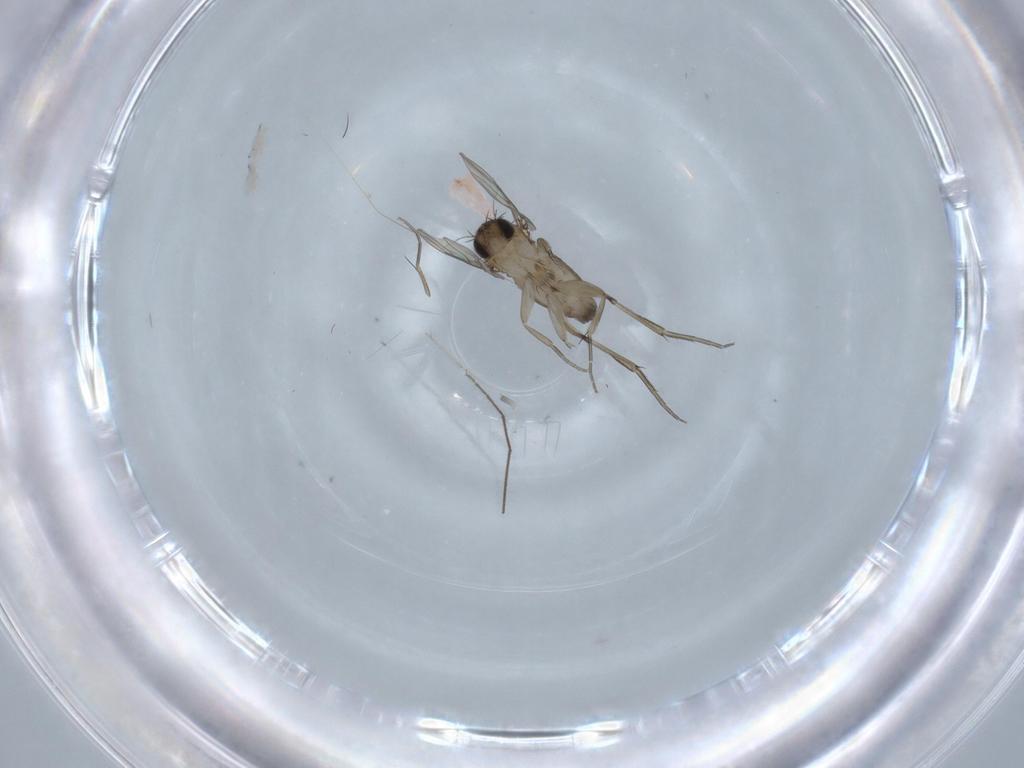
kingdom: Animalia
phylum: Arthropoda
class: Insecta
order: Diptera
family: Phoridae
